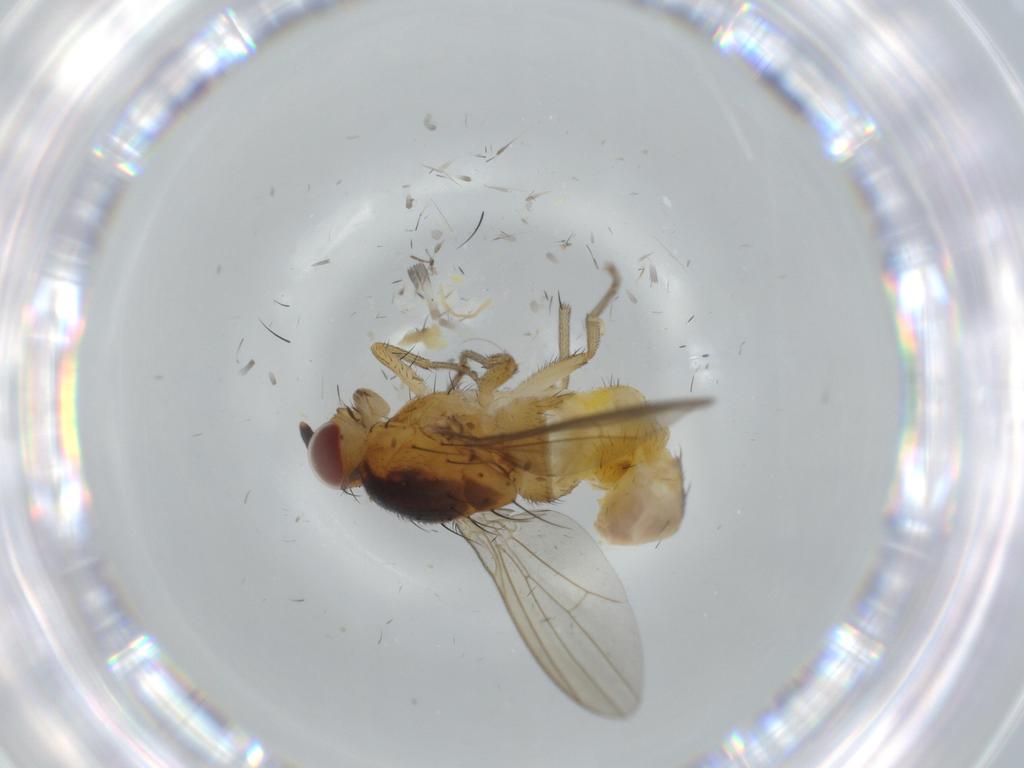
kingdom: Animalia
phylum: Arthropoda
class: Insecta
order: Diptera
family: Lauxaniidae
